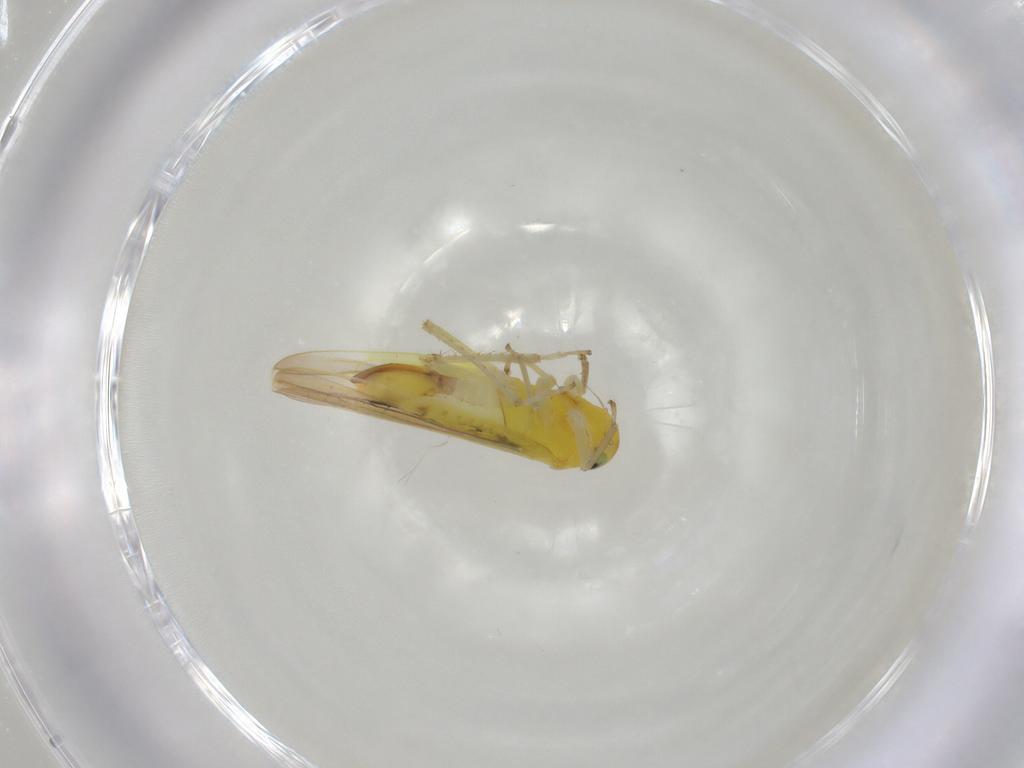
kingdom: Animalia
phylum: Arthropoda
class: Insecta
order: Hemiptera
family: Cicadellidae
